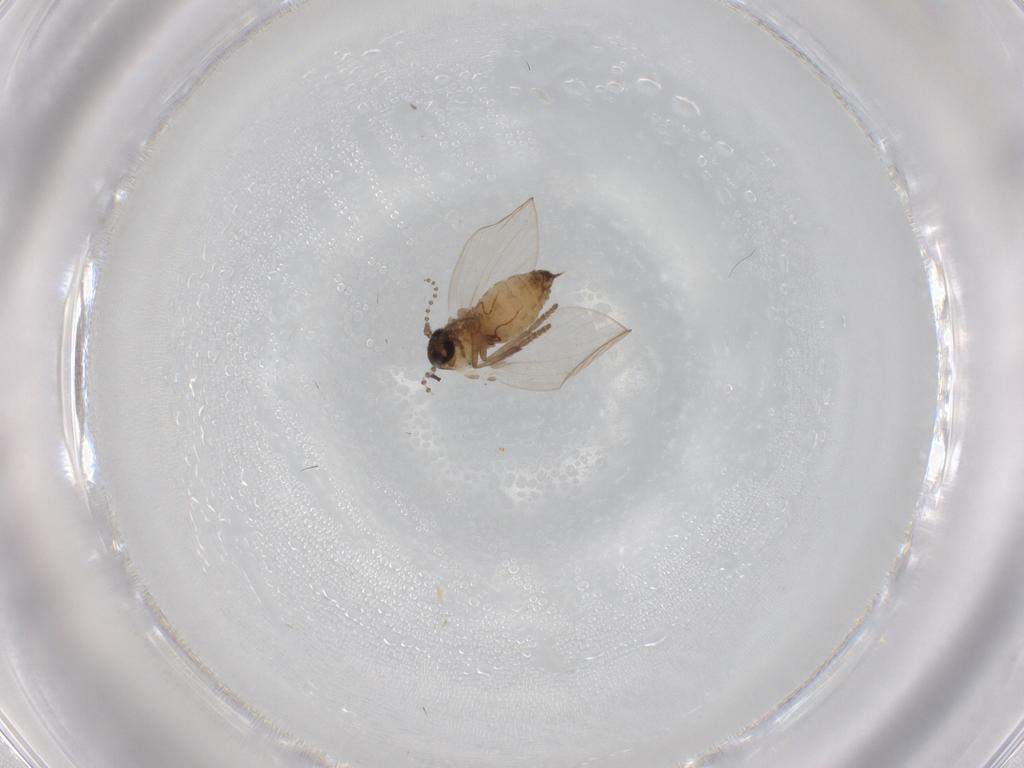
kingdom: Animalia
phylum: Arthropoda
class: Insecta
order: Diptera
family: Psychodidae
